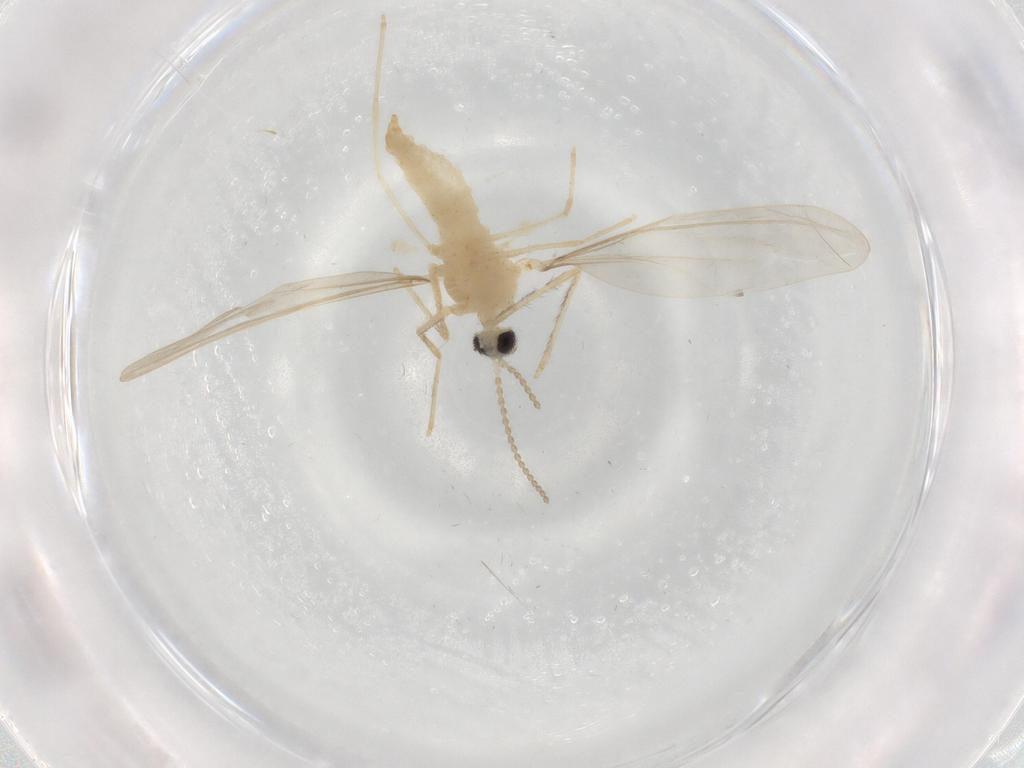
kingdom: Animalia
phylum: Arthropoda
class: Insecta
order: Diptera
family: Cecidomyiidae
